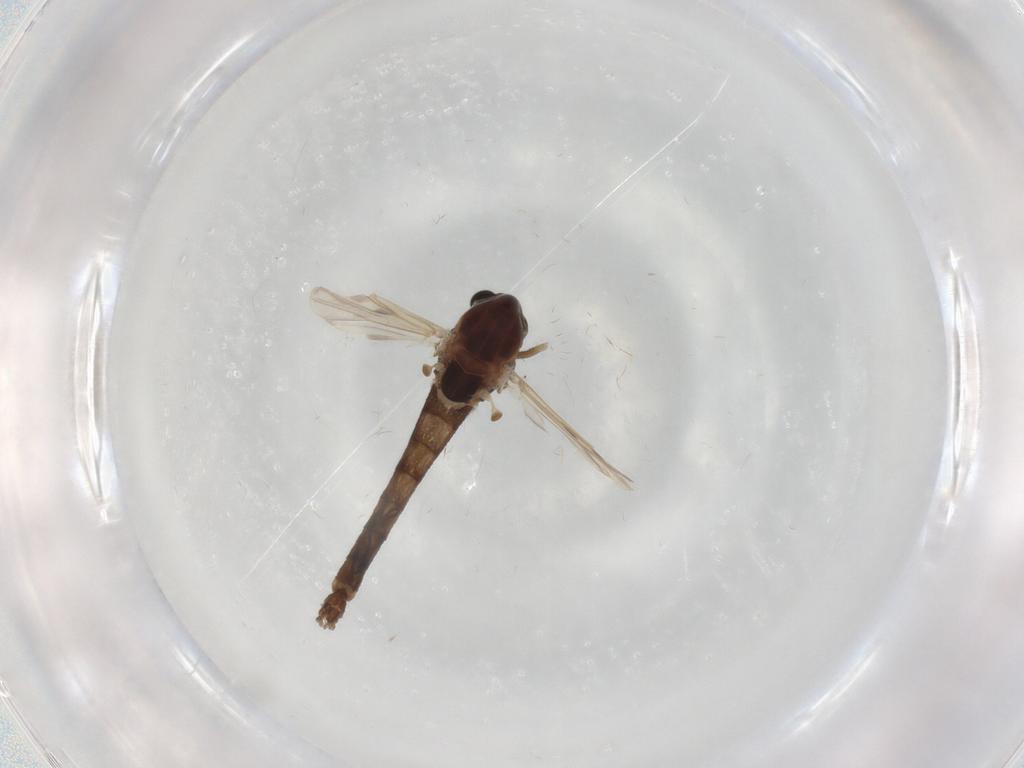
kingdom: Animalia
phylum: Arthropoda
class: Insecta
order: Diptera
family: Chironomidae
